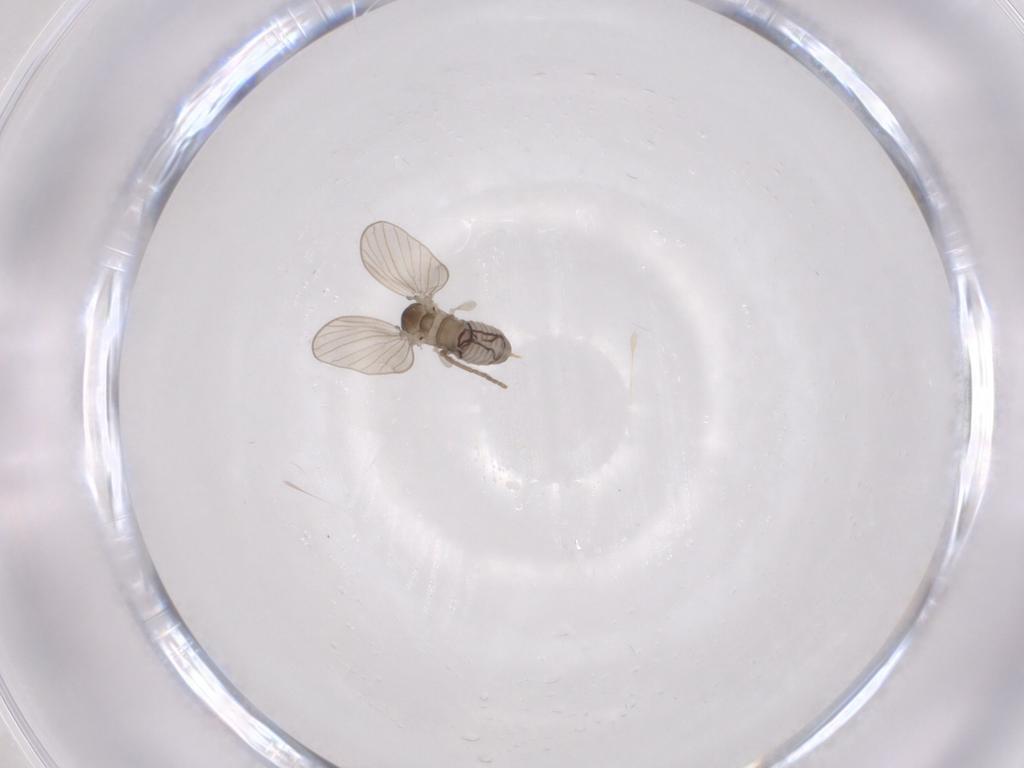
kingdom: Animalia
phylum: Arthropoda
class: Insecta
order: Diptera
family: Psychodidae
